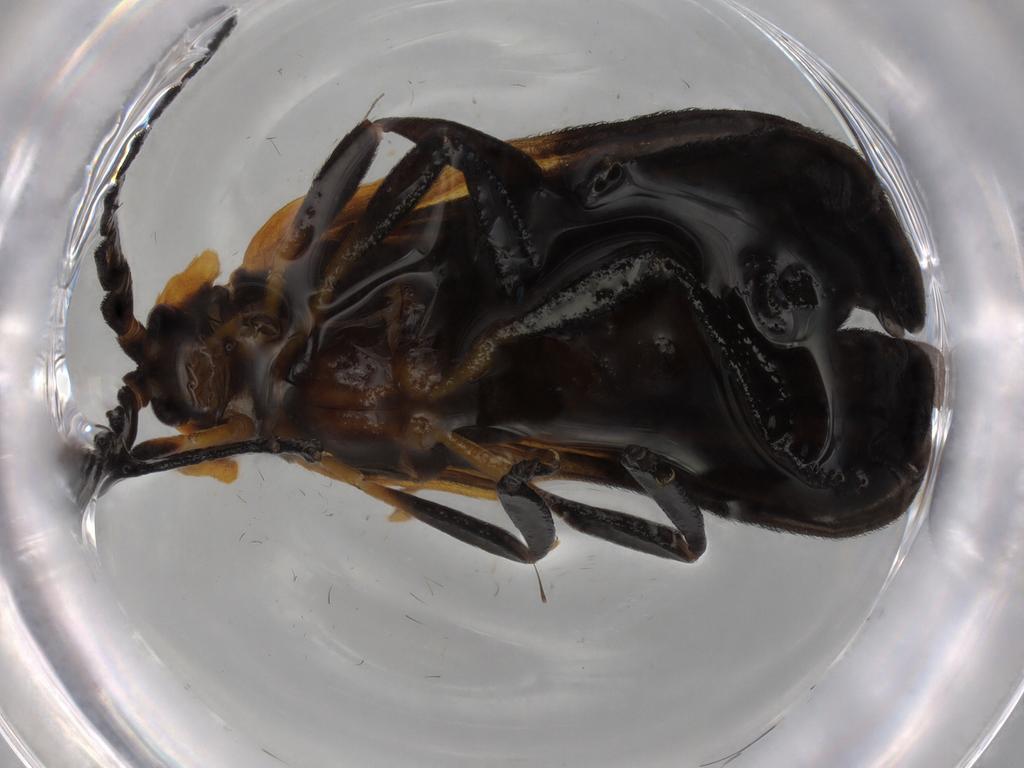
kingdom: Animalia
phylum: Arthropoda
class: Insecta
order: Coleoptera
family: Lycidae
